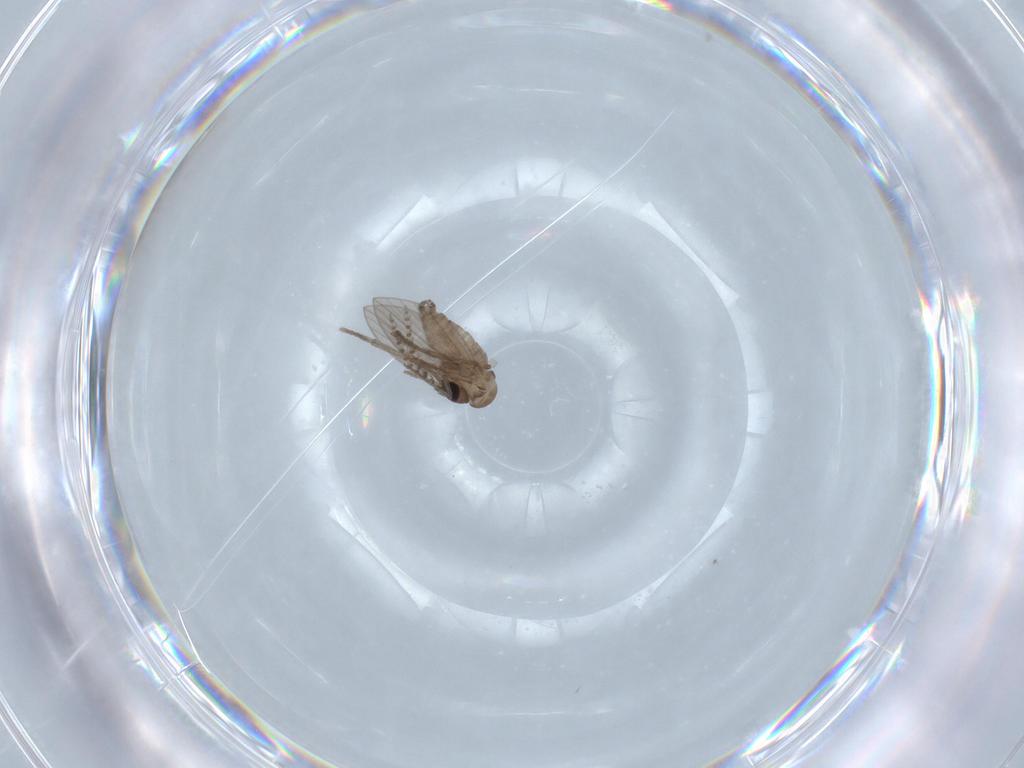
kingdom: Animalia
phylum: Arthropoda
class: Insecta
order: Diptera
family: Psychodidae
